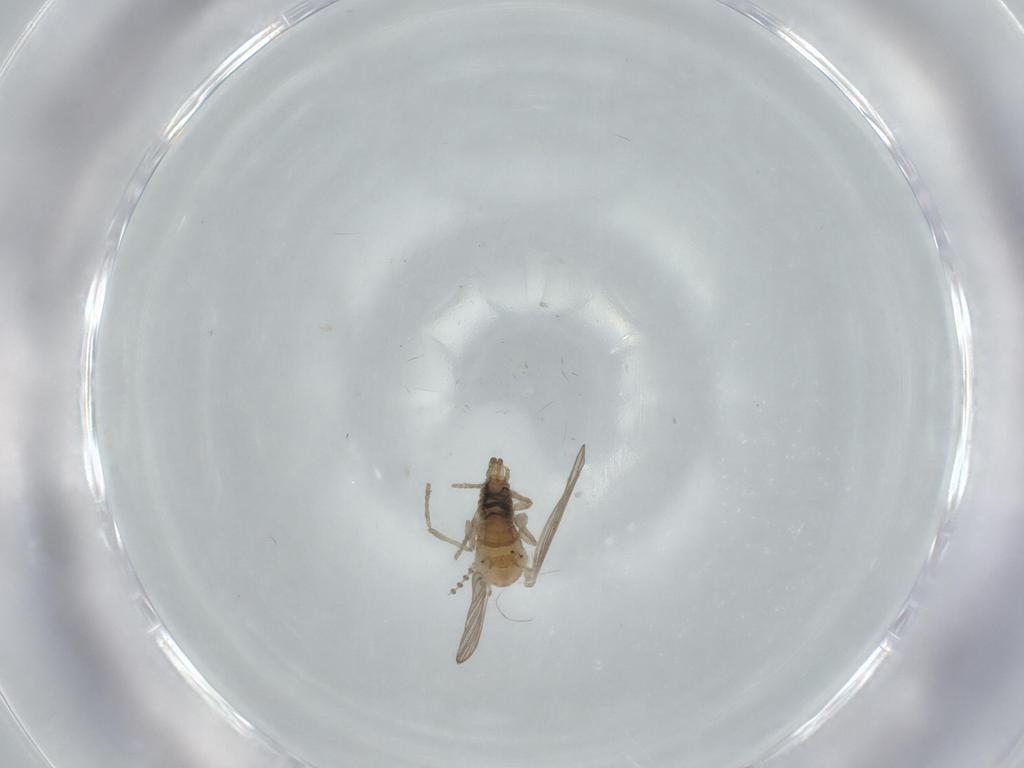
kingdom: Animalia
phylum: Arthropoda
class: Insecta
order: Diptera
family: Psychodidae
